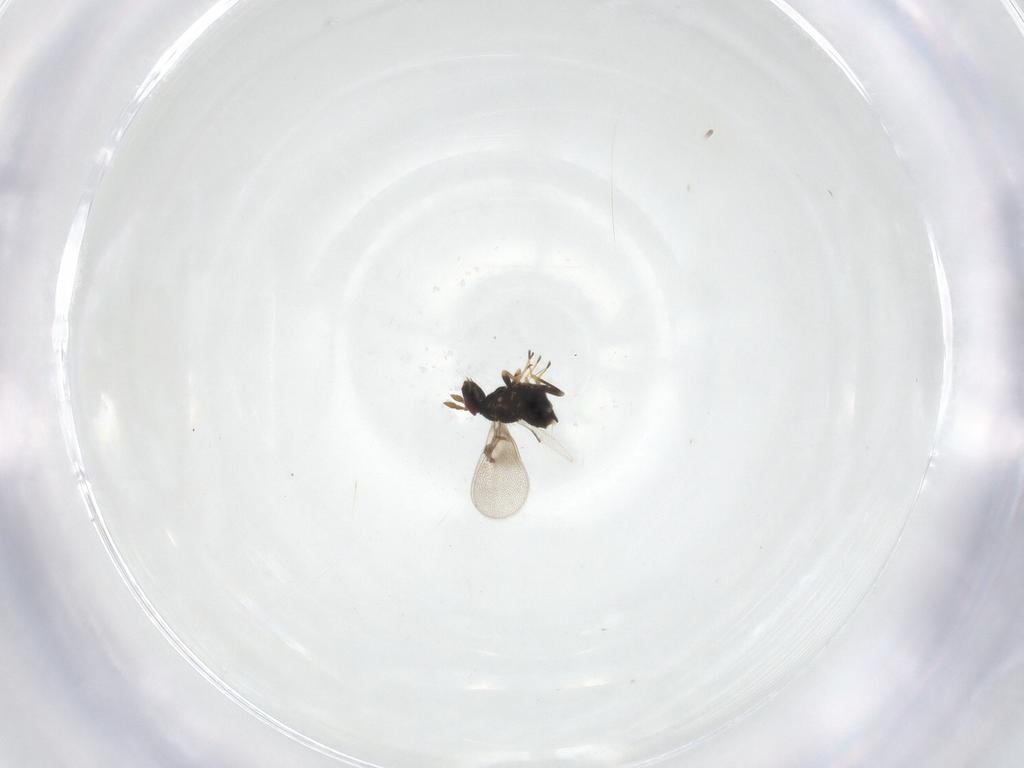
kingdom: Animalia
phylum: Arthropoda
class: Insecta
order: Hymenoptera
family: Trichogrammatidae
